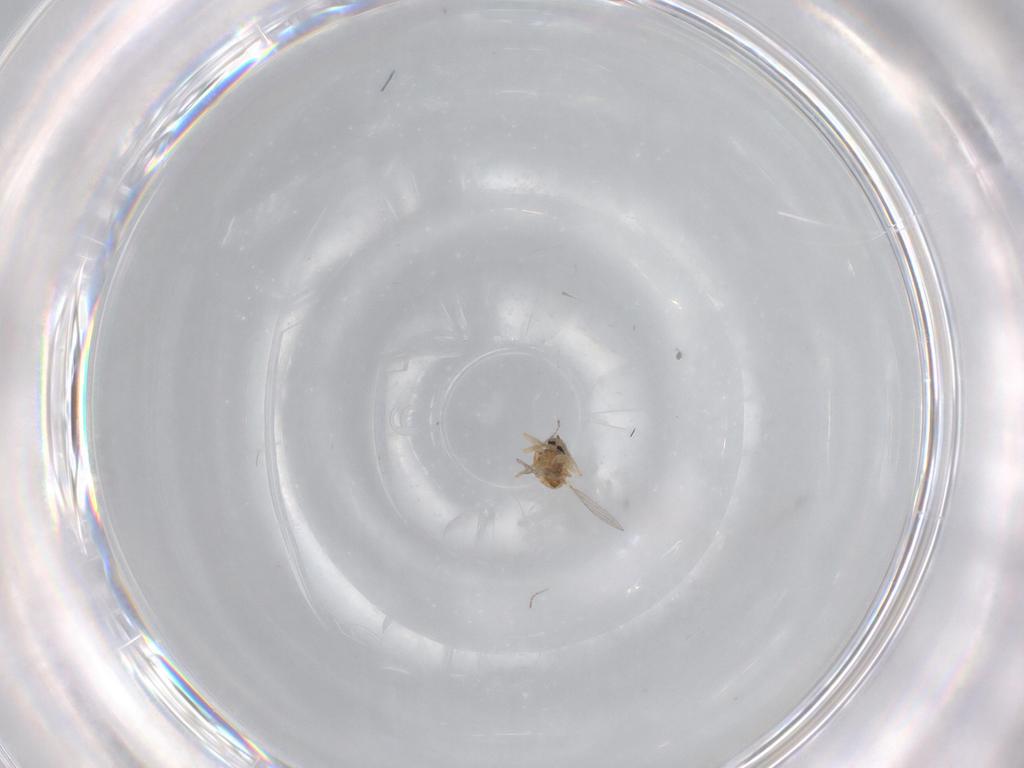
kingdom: Animalia
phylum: Arthropoda
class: Insecta
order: Diptera
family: Ceratopogonidae
